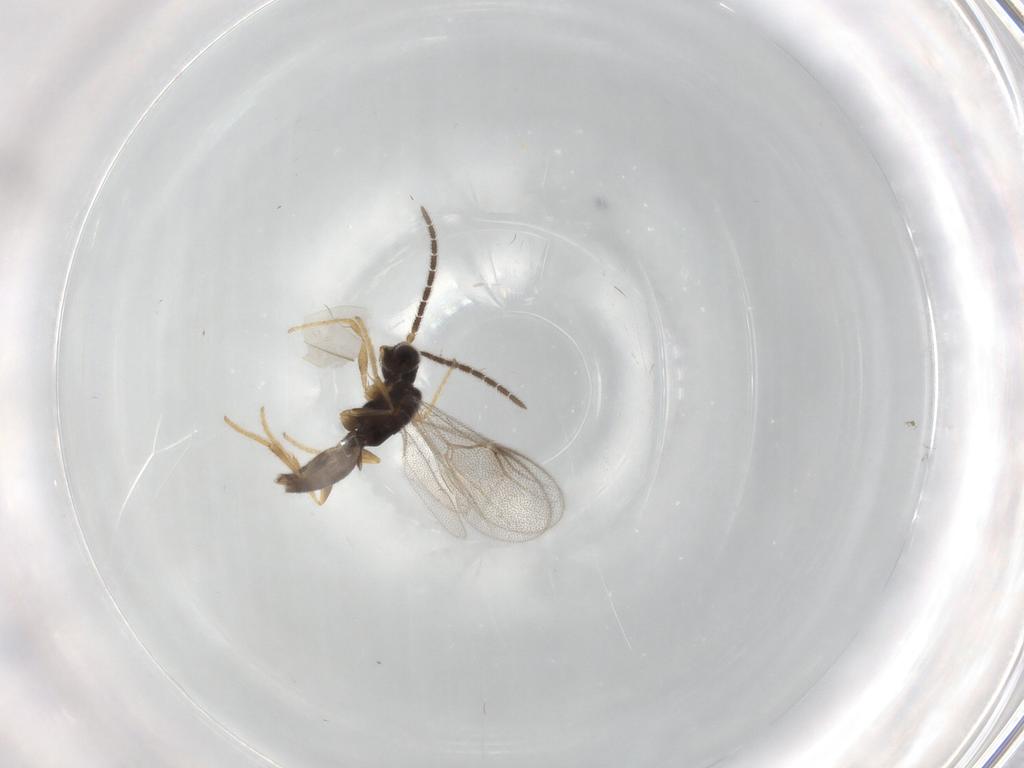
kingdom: Animalia
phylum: Arthropoda
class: Insecta
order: Hymenoptera
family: Dryinidae
